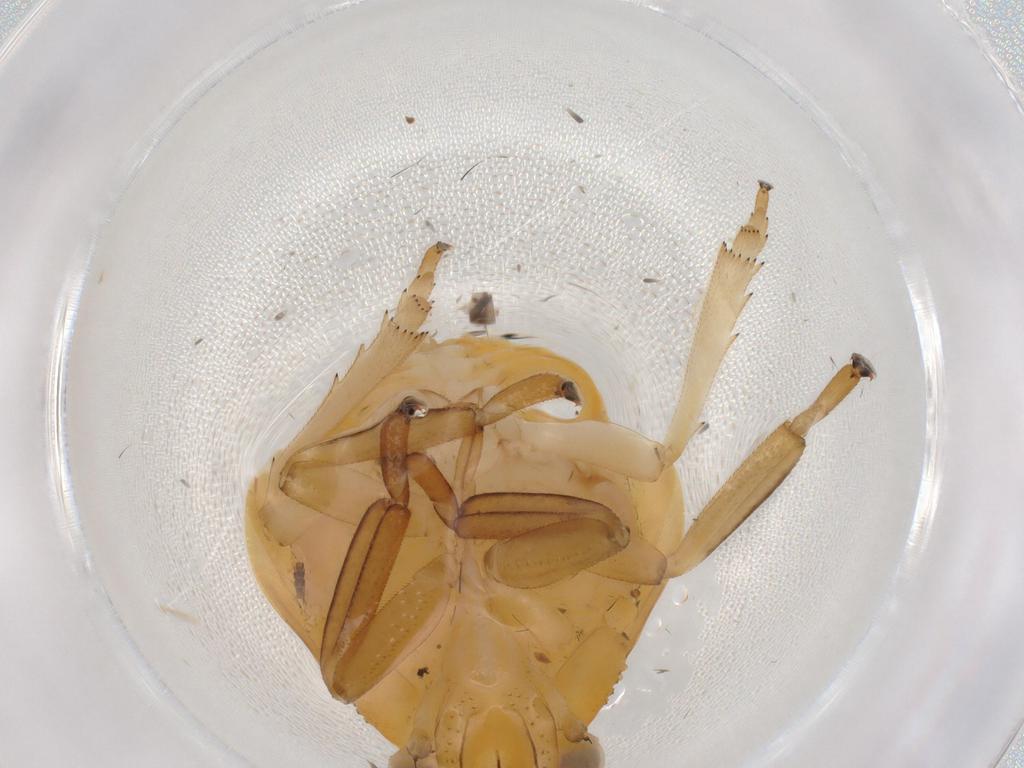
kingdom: Animalia
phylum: Arthropoda
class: Insecta
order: Hemiptera
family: Issidae
